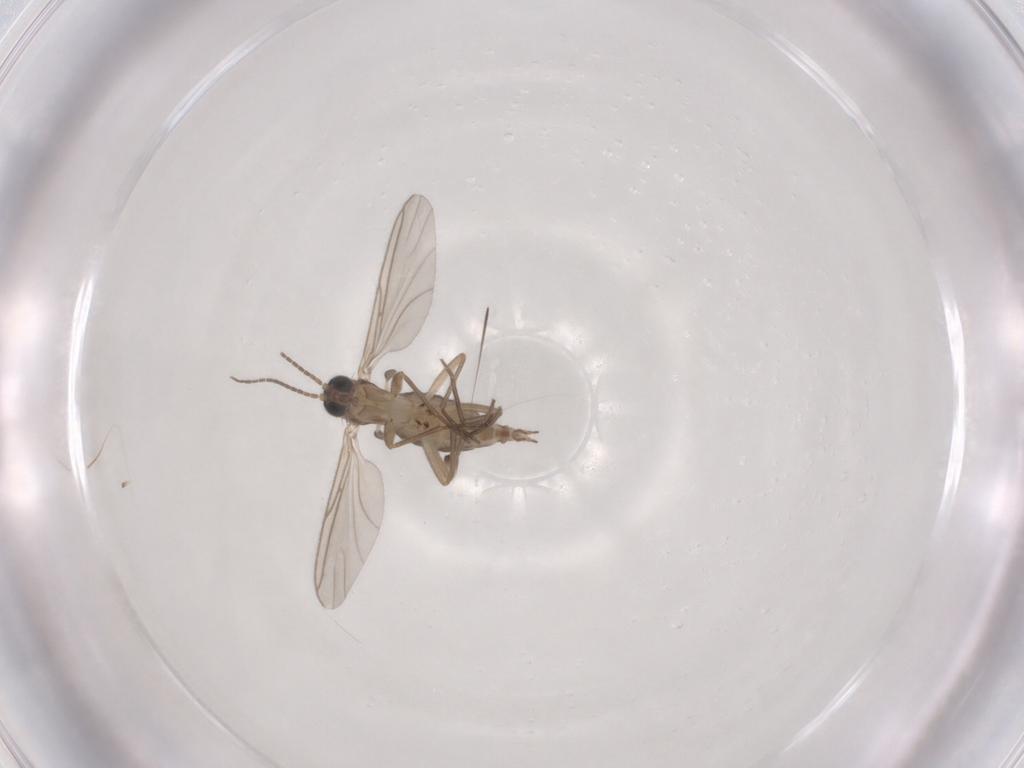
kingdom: Animalia
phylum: Arthropoda
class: Insecta
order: Diptera
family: Sciaridae
